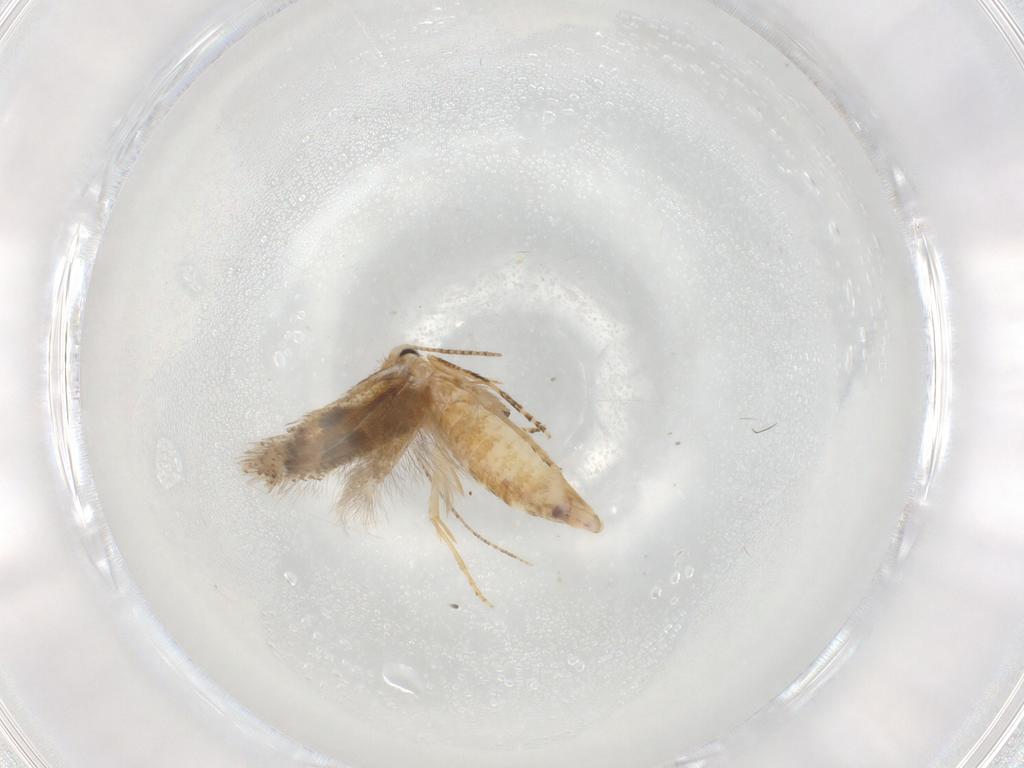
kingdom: Animalia
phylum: Arthropoda
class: Insecta
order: Lepidoptera
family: Bucculatricidae
